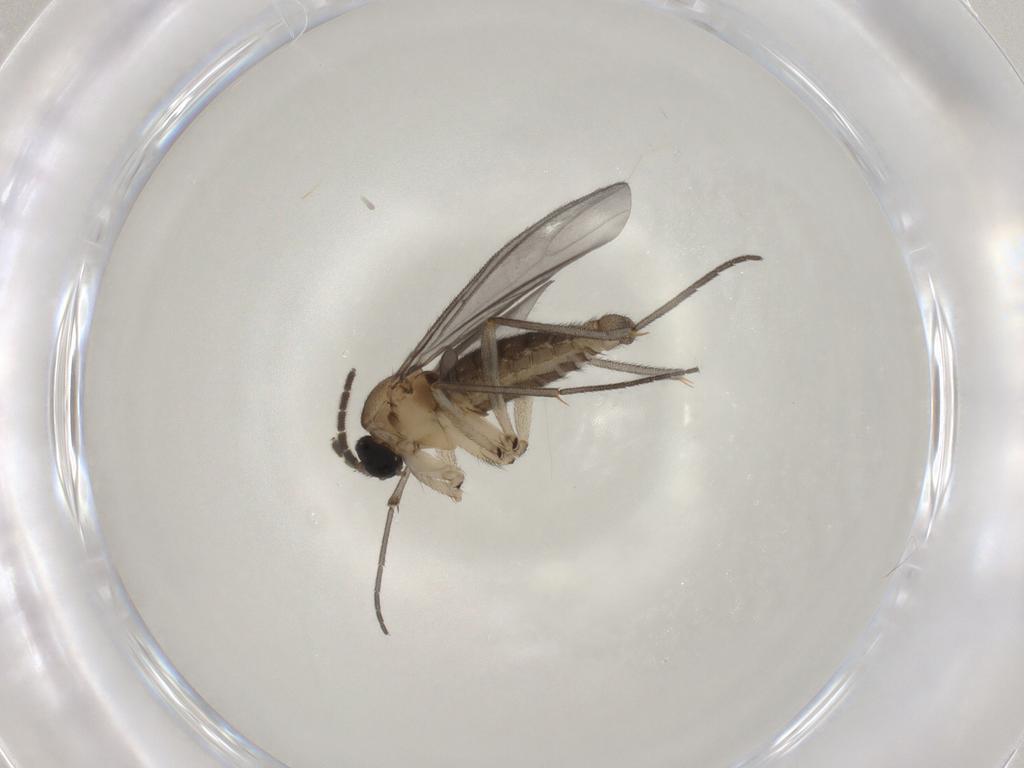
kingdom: Animalia
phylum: Arthropoda
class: Insecta
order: Diptera
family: Sciaridae
